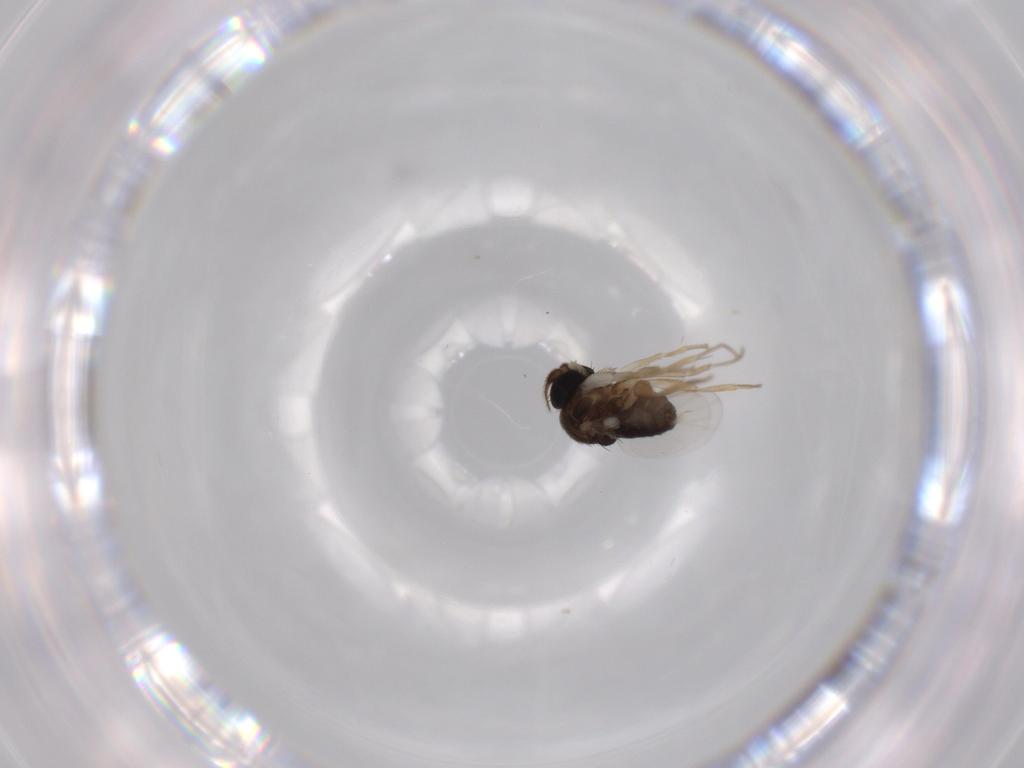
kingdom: Animalia
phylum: Arthropoda
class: Insecta
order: Diptera
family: Phoridae
